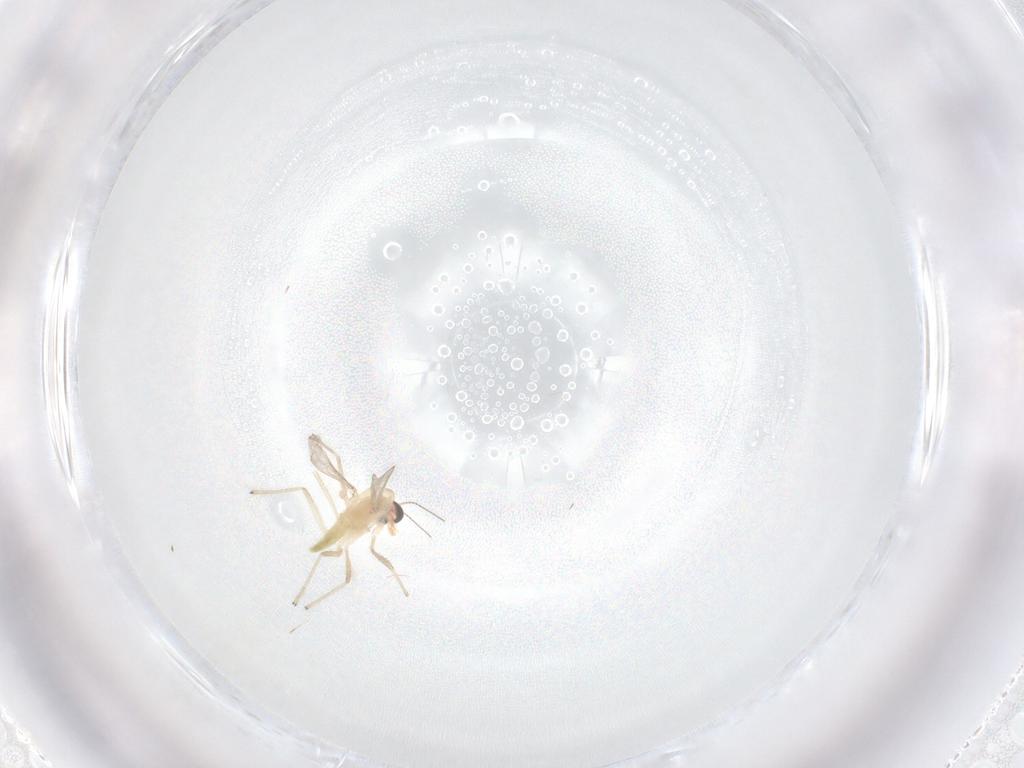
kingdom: Animalia
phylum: Arthropoda
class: Insecta
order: Diptera
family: Chironomidae
